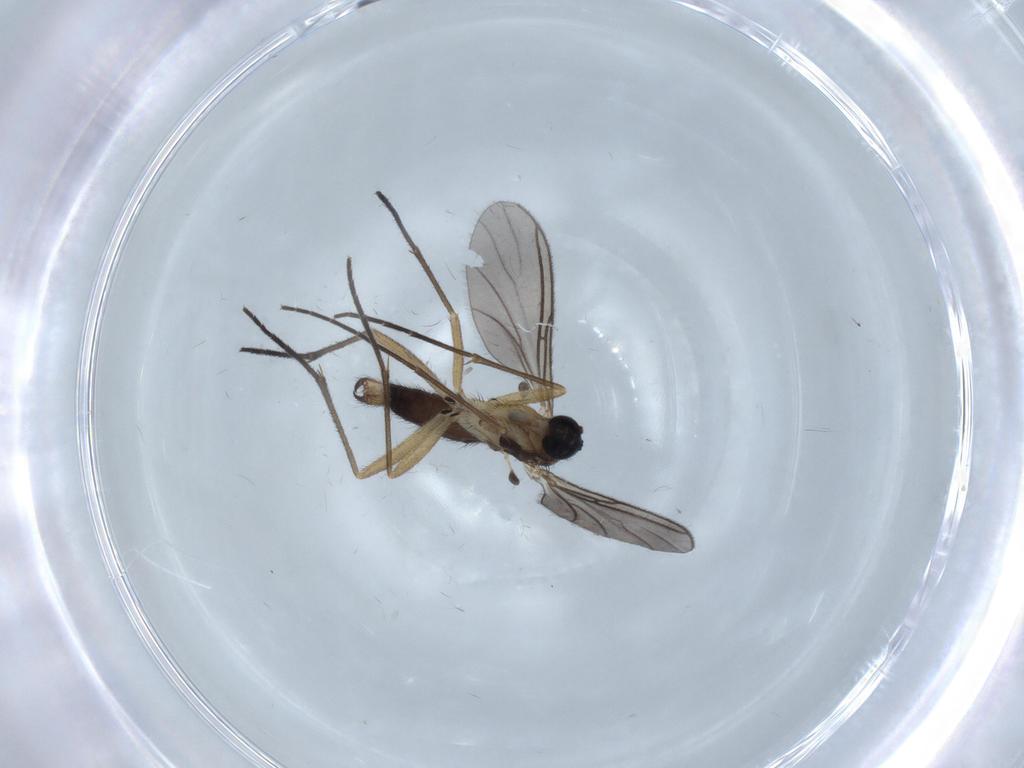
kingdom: Animalia
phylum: Arthropoda
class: Insecta
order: Diptera
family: Sciaridae
